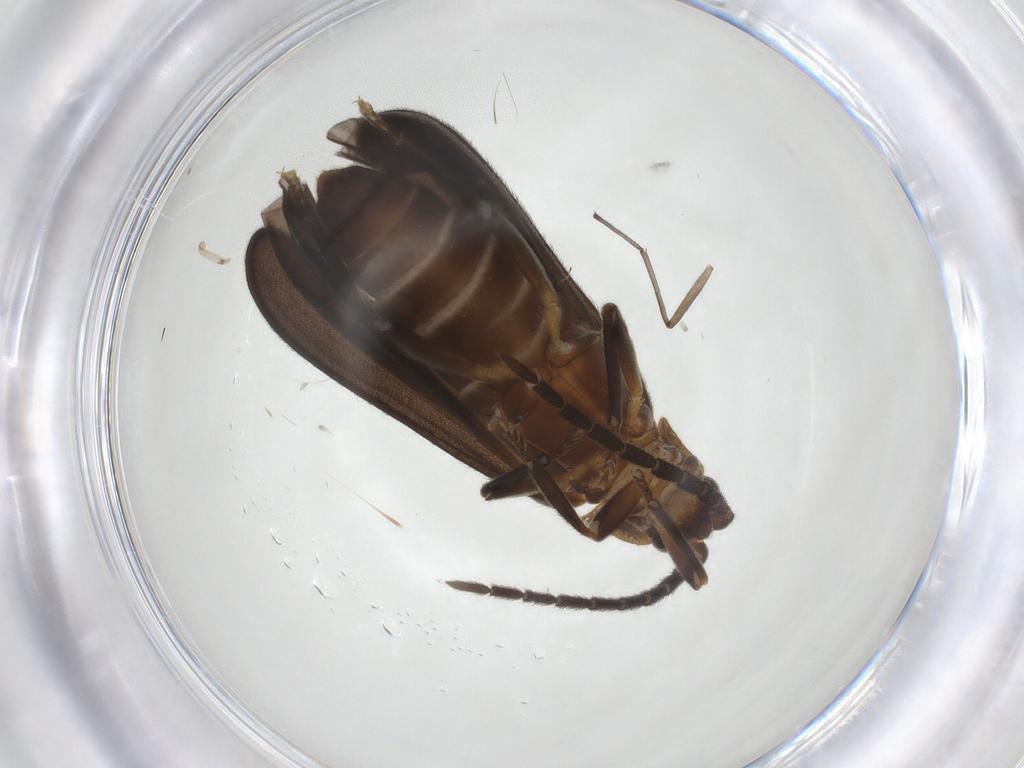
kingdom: Animalia
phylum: Arthropoda
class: Insecta
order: Coleoptera
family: Lycidae
